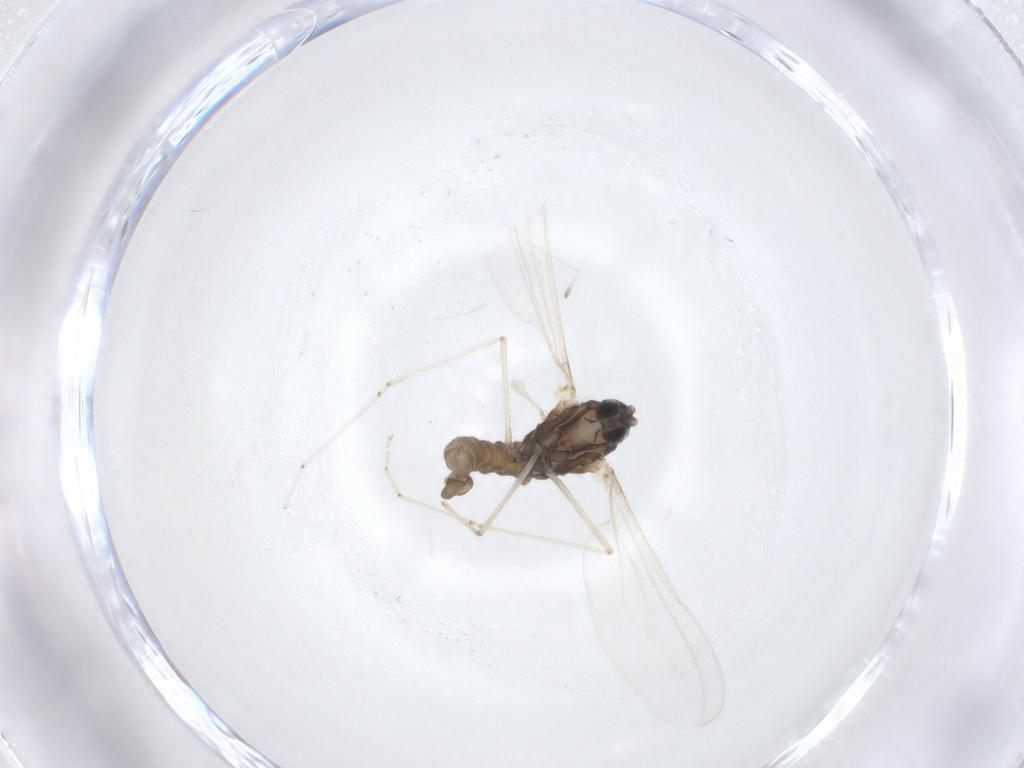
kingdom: Animalia
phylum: Arthropoda
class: Insecta
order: Diptera
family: Cecidomyiidae
